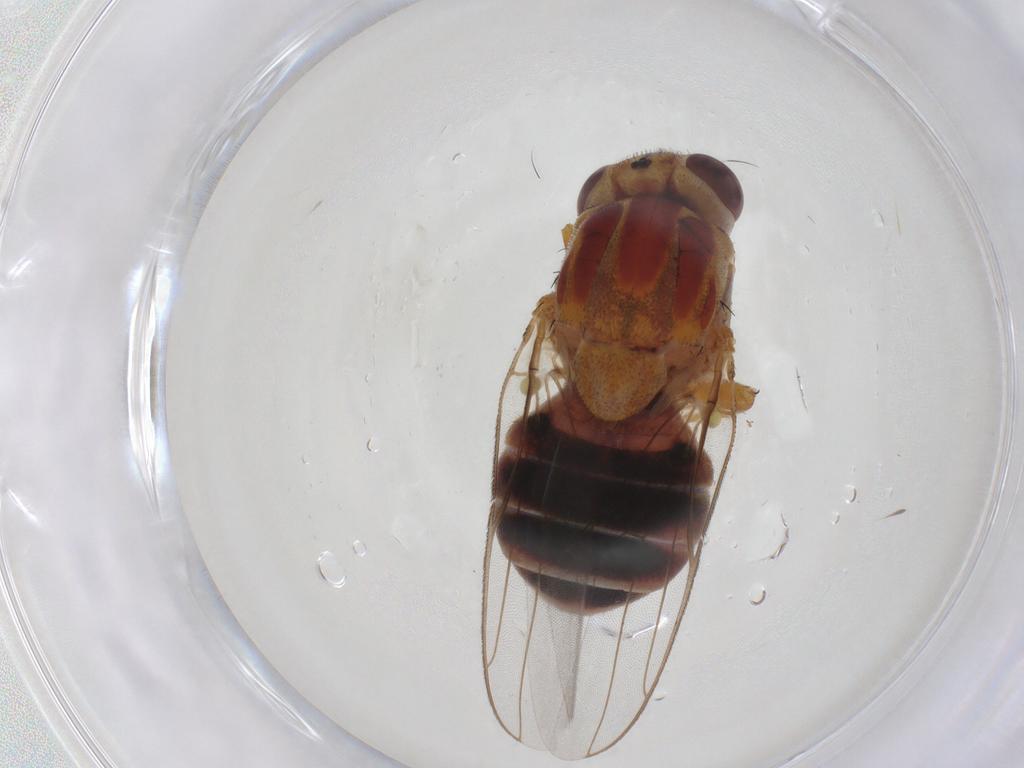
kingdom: Animalia
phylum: Arthropoda
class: Insecta
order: Diptera
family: Chloropidae
